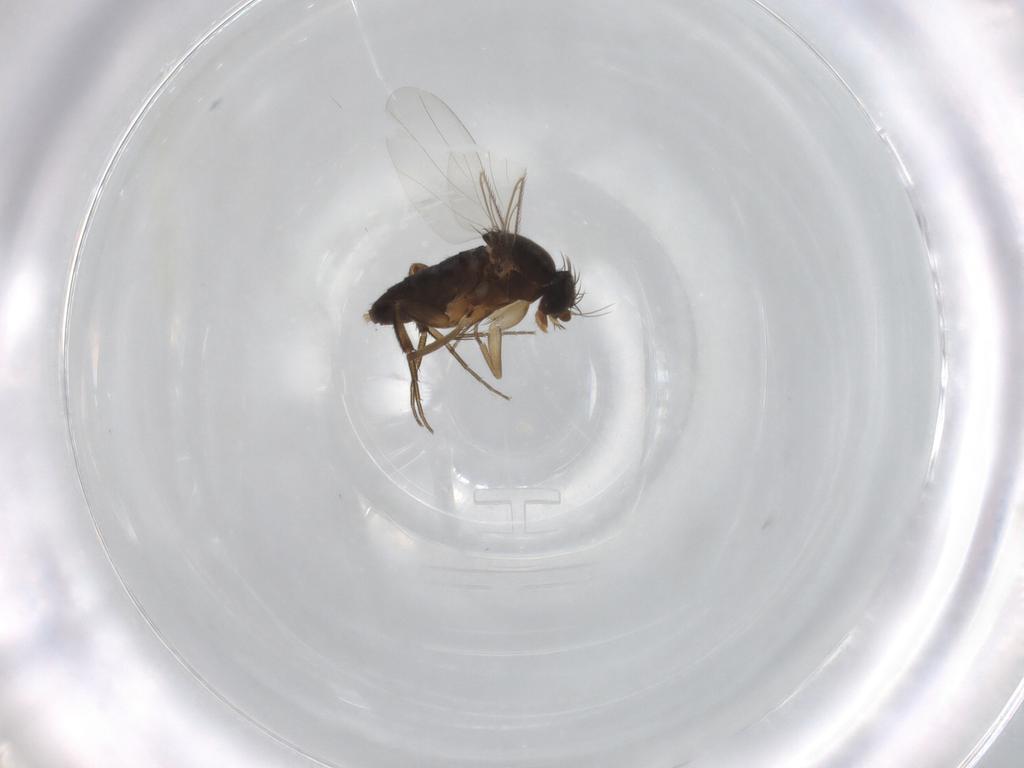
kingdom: Animalia
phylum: Arthropoda
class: Insecta
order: Diptera
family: Phoridae
